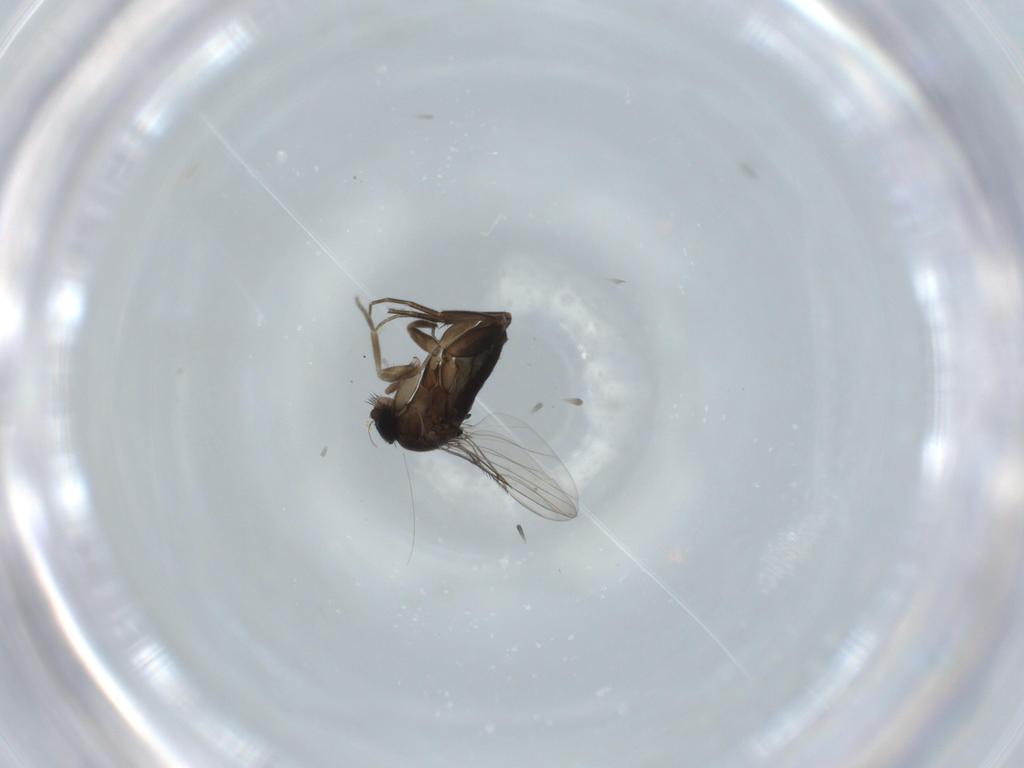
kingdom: Animalia
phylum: Arthropoda
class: Insecta
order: Diptera
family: Phoridae
